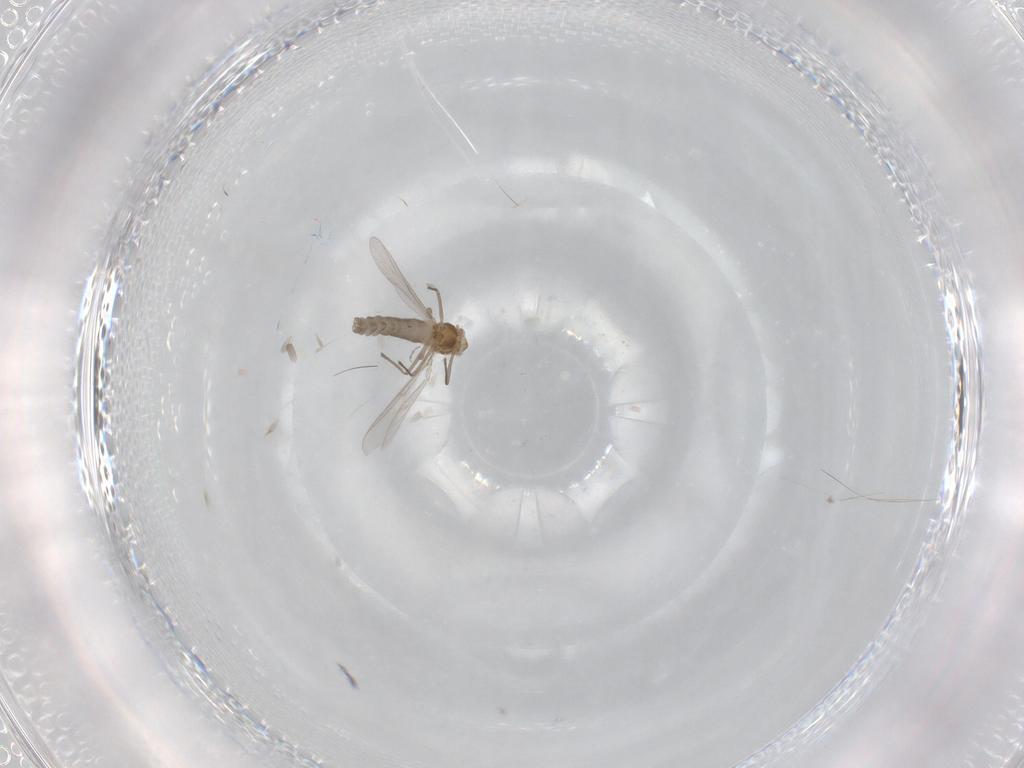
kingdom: Animalia
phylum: Arthropoda
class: Insecta
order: Diptera
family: Chironomidae
